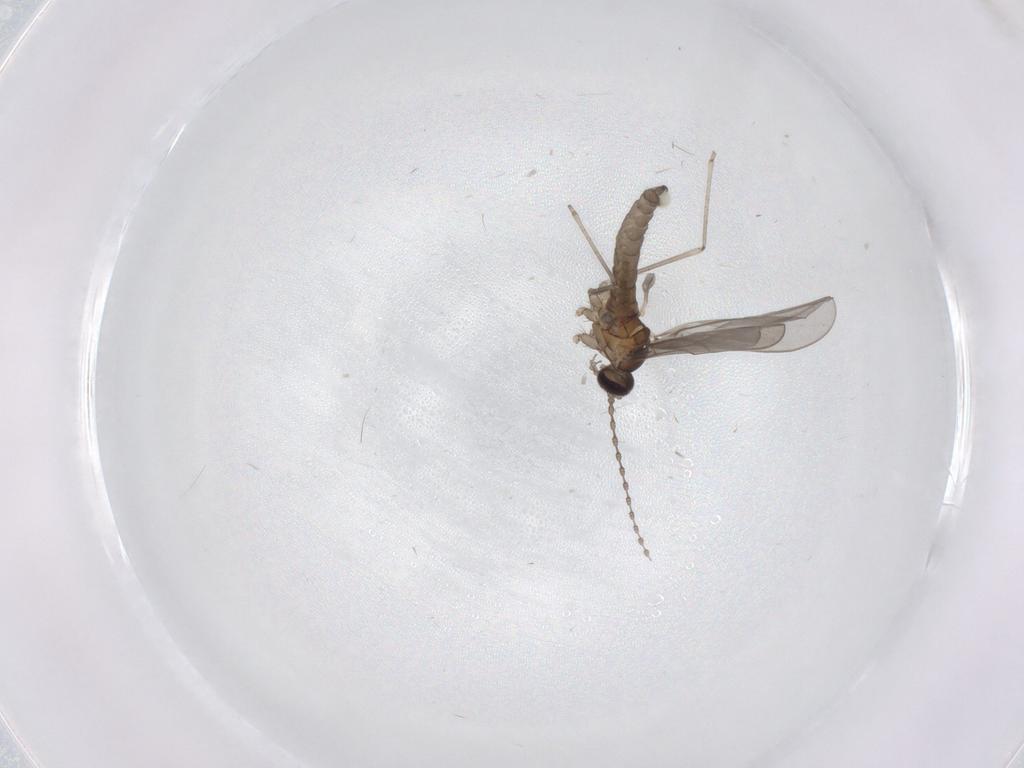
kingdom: Animalia
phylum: Arthropoda
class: Insecta
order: Diptera
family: Cecidomyiidae
